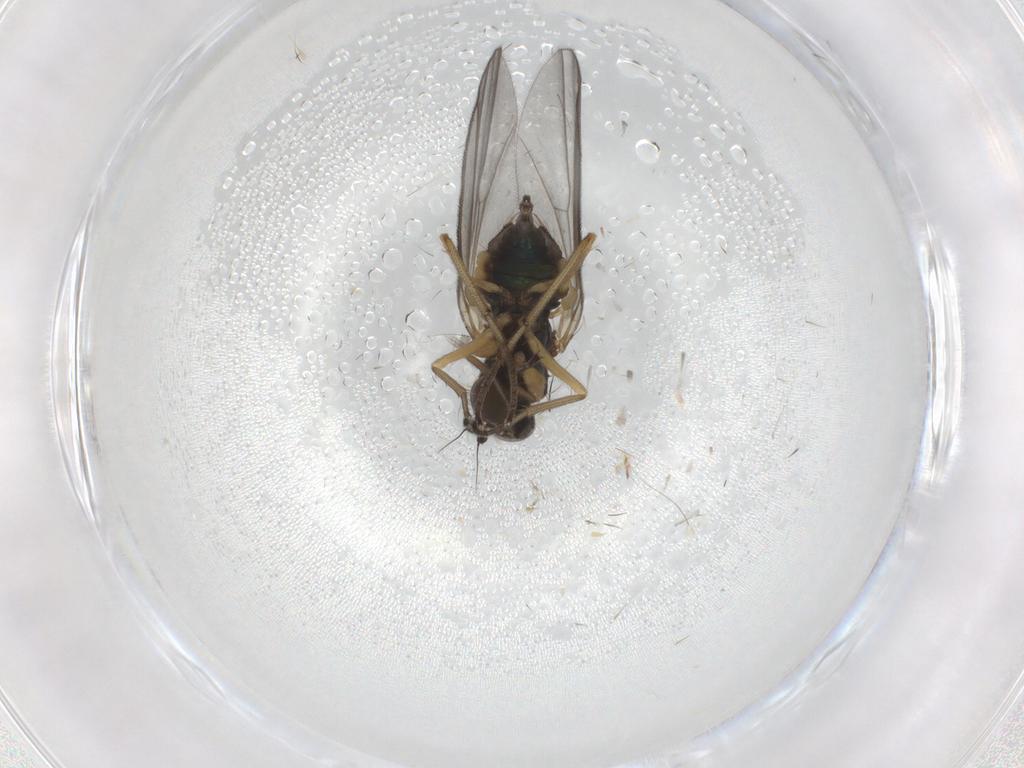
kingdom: Animalia
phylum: Arthropoda
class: Insecta
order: Diptera
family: Dolichopodidae
